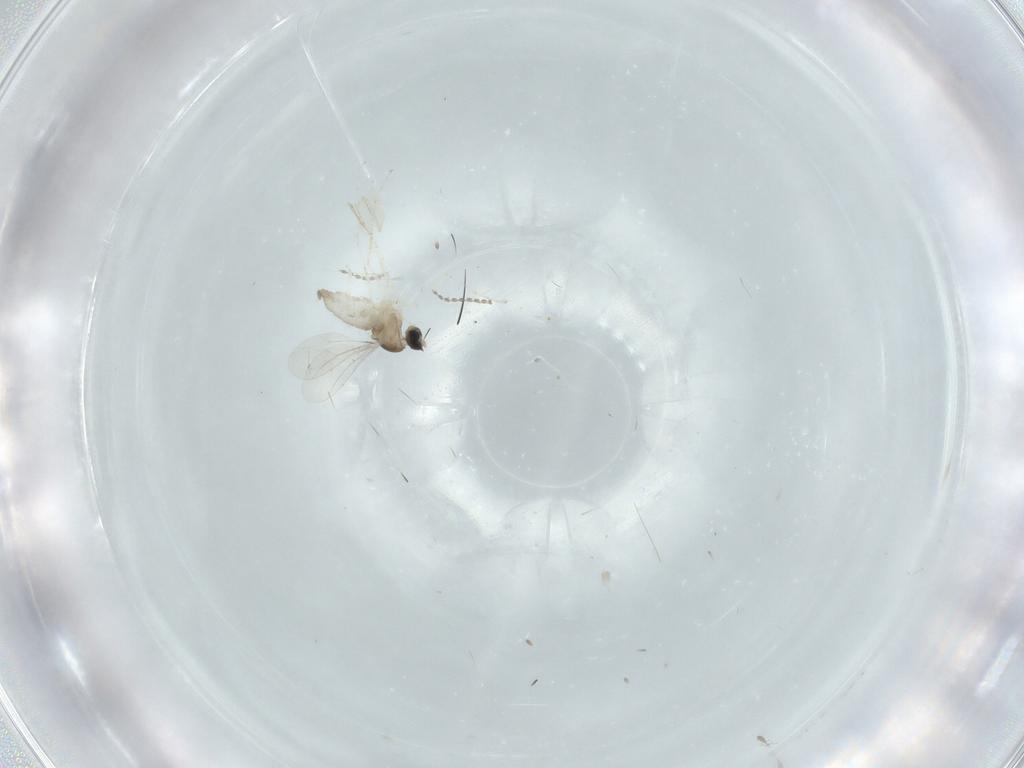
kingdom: Animalia
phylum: Arthropoda
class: Insecta
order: Diptera
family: Cecidomyiidae
